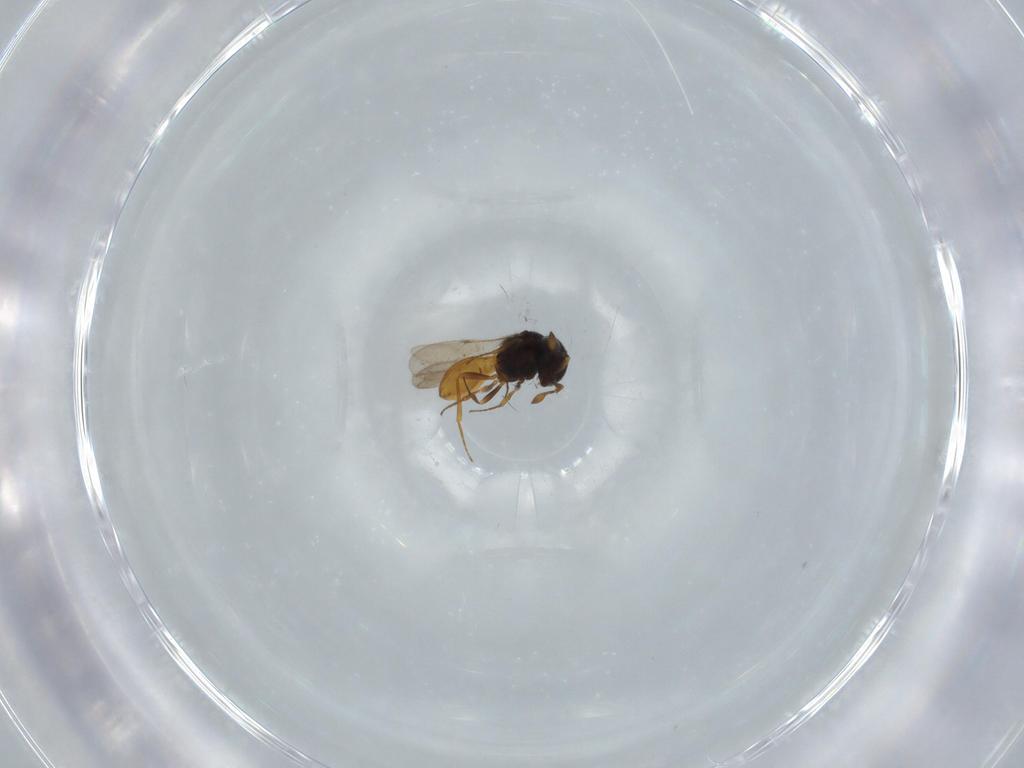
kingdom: Animalia
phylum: Arthropoda
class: Insecta
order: Hymenoptera
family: Scelionidae
